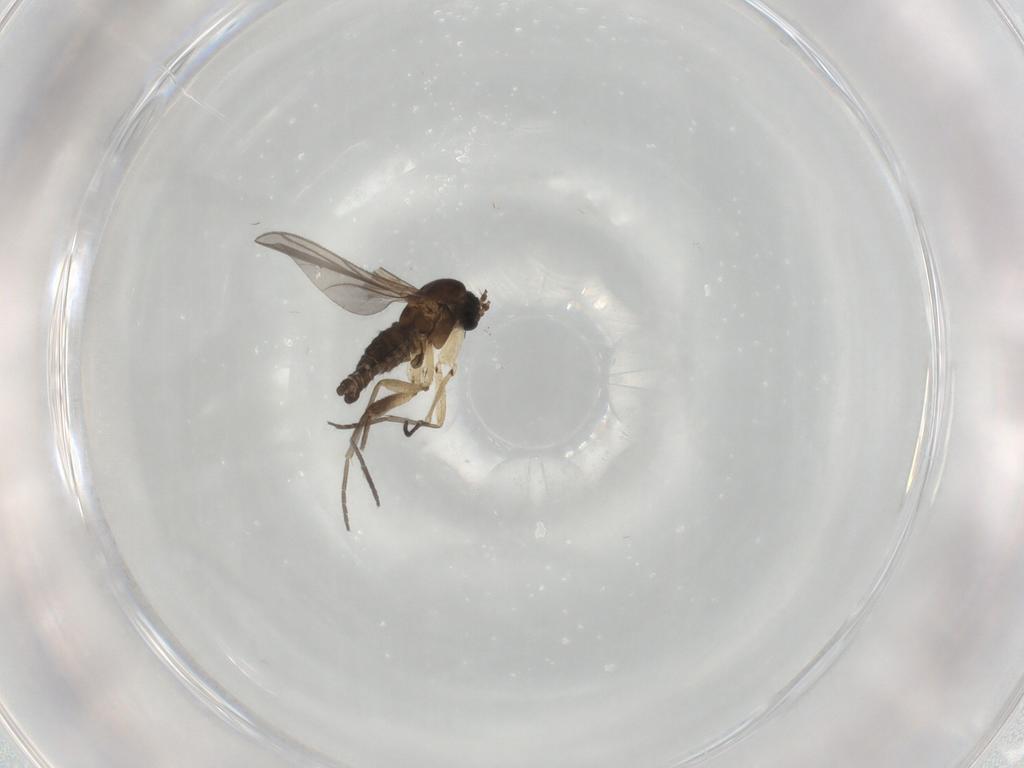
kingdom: Animalia
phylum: Arthropoda
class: Insecta
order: Diptera
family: Sciaridae
